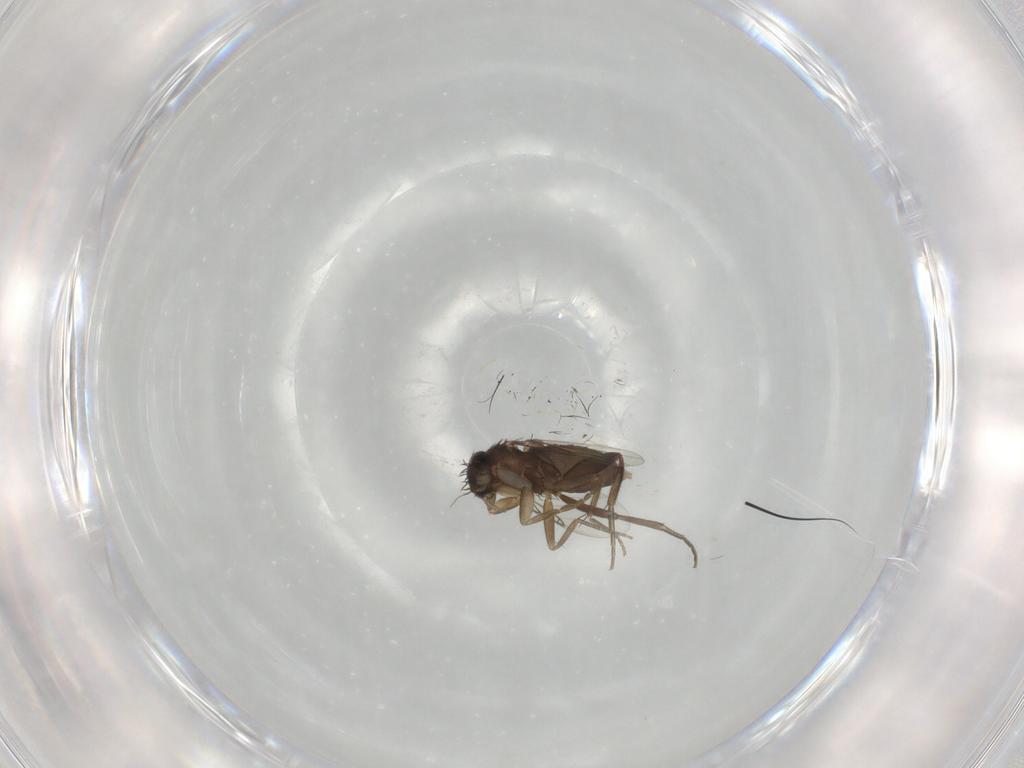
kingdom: Animalia
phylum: Arthropoda
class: Insecta
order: Diptera
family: Phoridae
